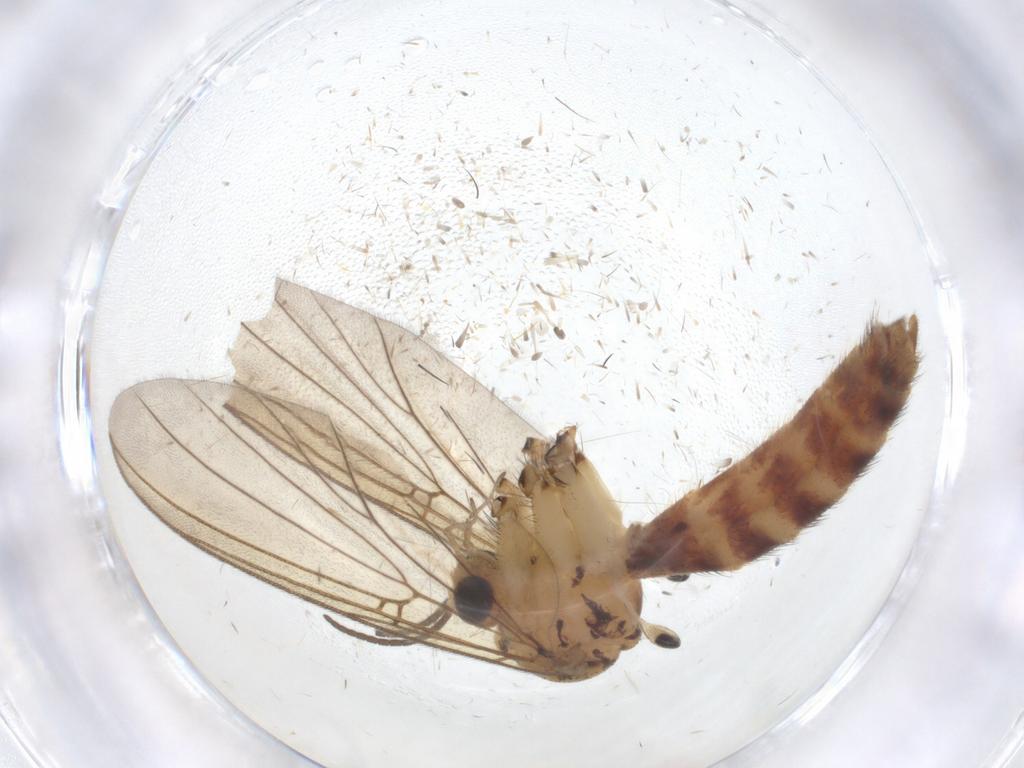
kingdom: Animalia
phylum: Arthropoda
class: Insecta
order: Diptera
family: Dolichopodidae
